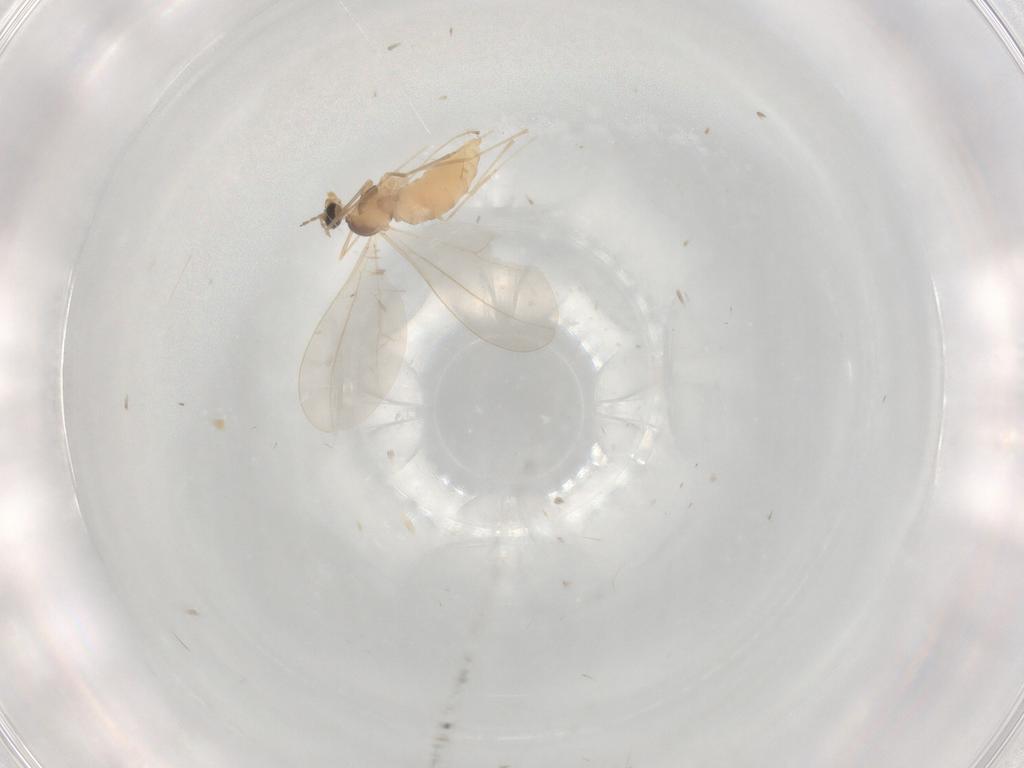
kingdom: Animalia
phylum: Arthropoda
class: Insecta
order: Diptera
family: Cecidomyiidae
